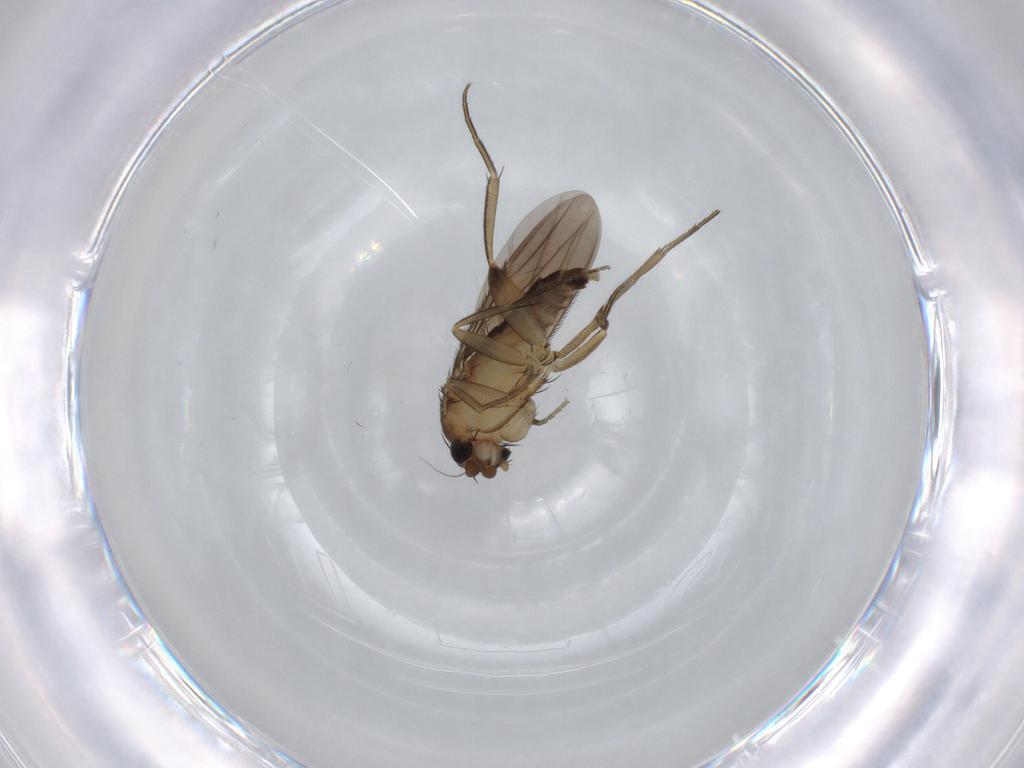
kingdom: Animalia
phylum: Arthropoda
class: Insecta
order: Diptera
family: Phoridae
